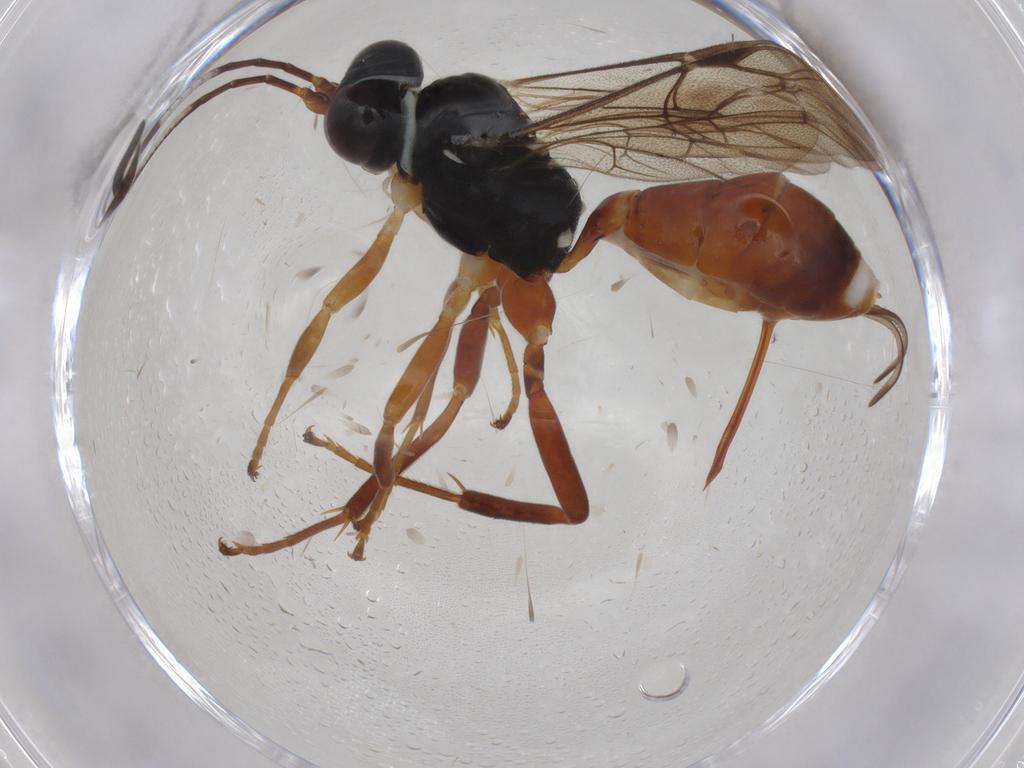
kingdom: Animalia
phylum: Arthropoda
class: Insecta
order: Hymenoptera
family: Ichneumonidae
